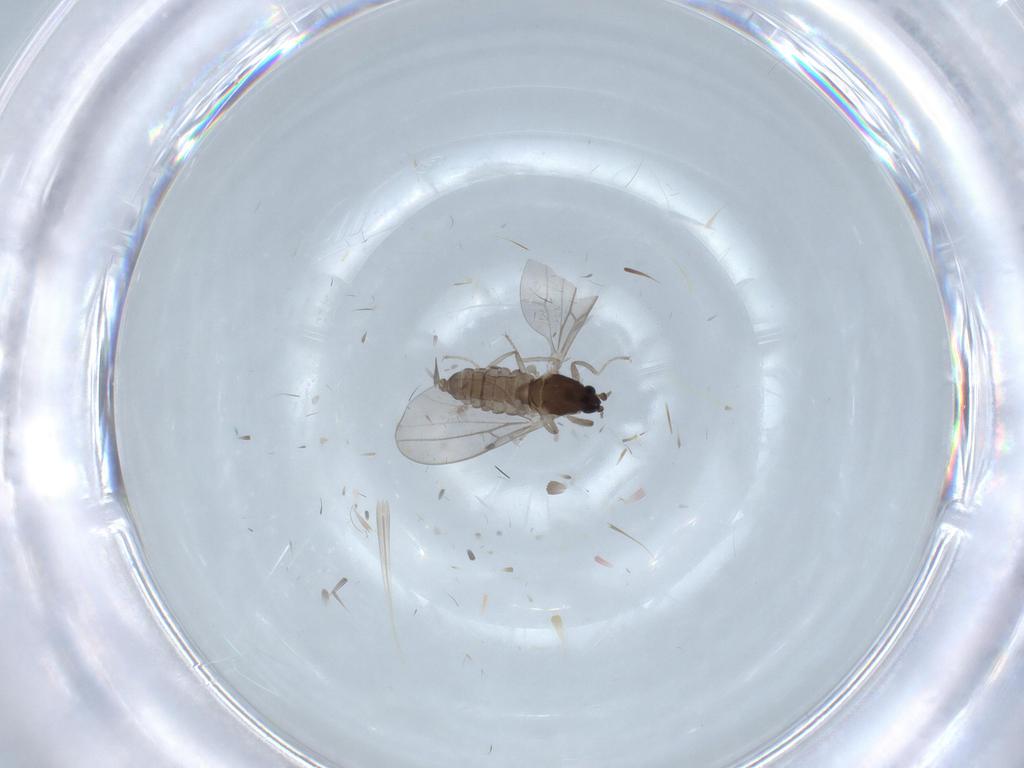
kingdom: Animalia
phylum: Arthropoda
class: Insecta
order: Diptera
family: Cecidomyiidae
